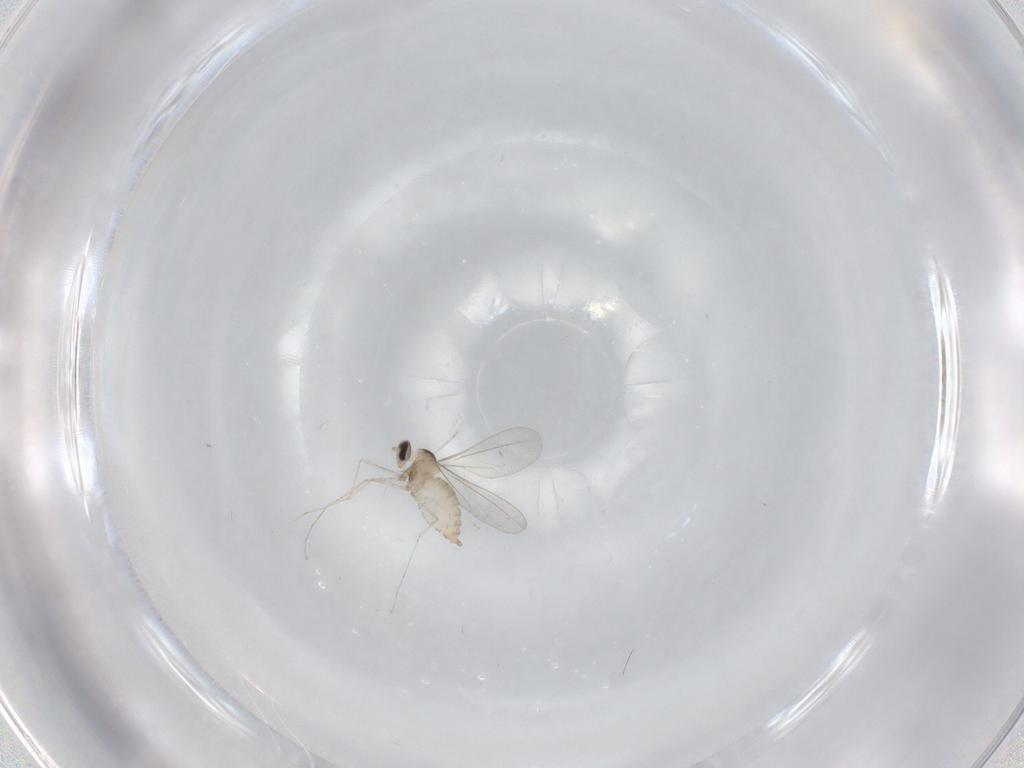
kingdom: Animalia
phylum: Arthropoda
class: Insecta
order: Diptera
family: Cecidomyiidae
